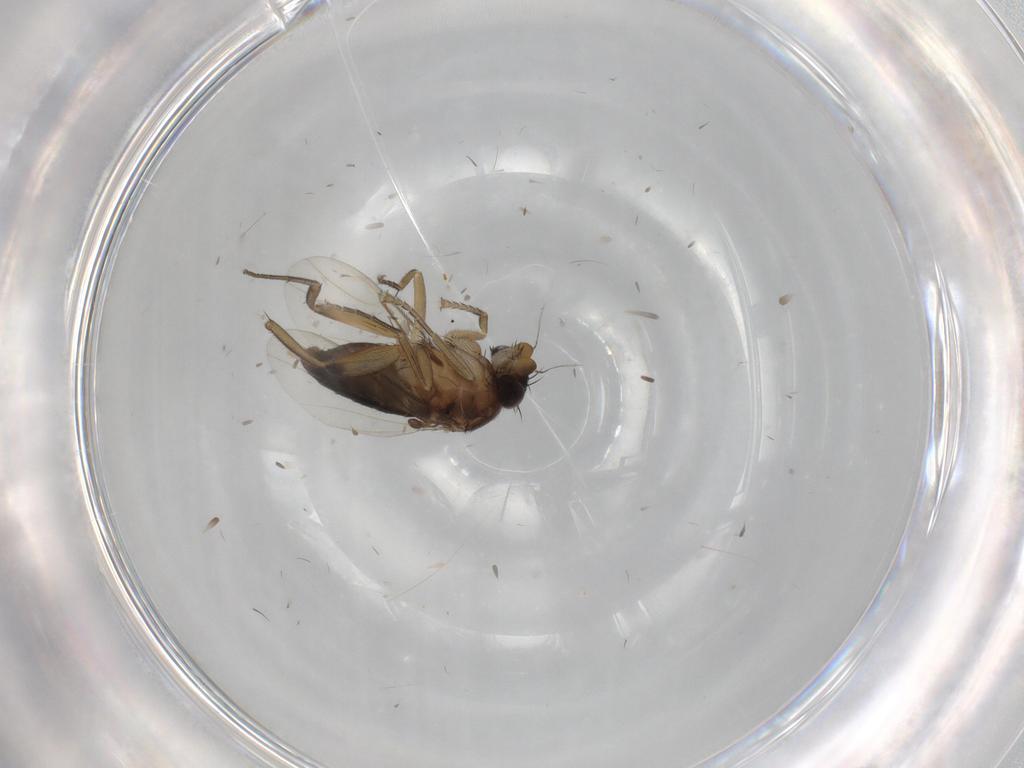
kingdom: Animalia
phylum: Arthropoda
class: Insecta
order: Diptera
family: Phoridae
